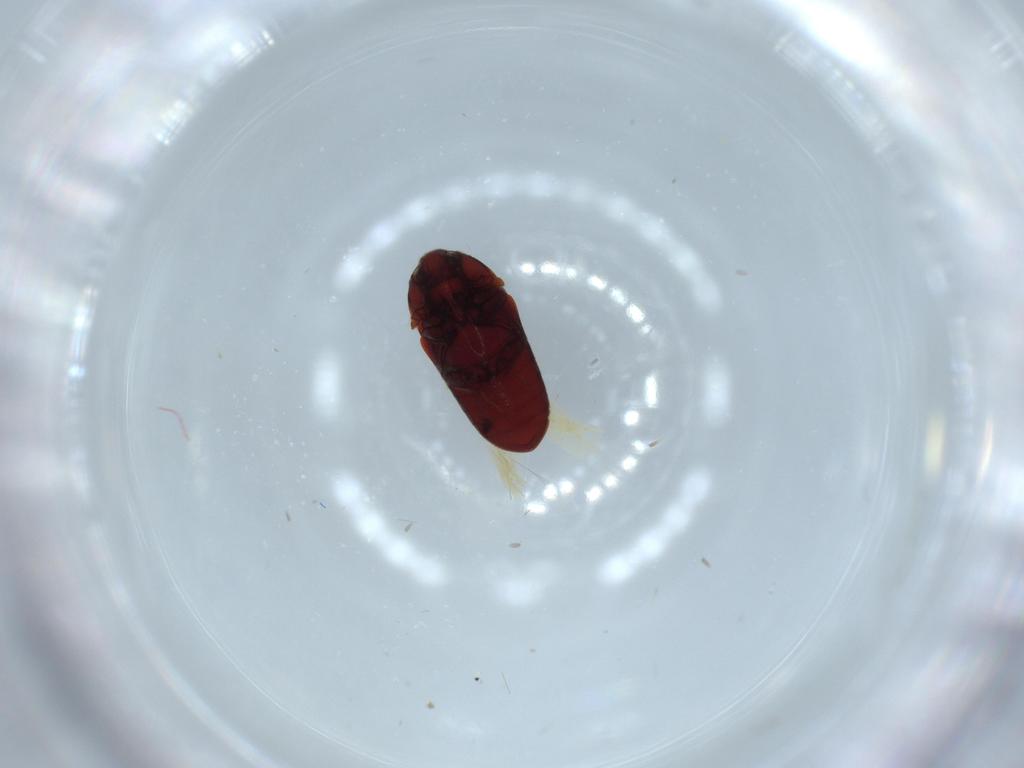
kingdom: Animalia
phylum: Arthropoda
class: Insecta
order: Coleoptera
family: Throscidae
